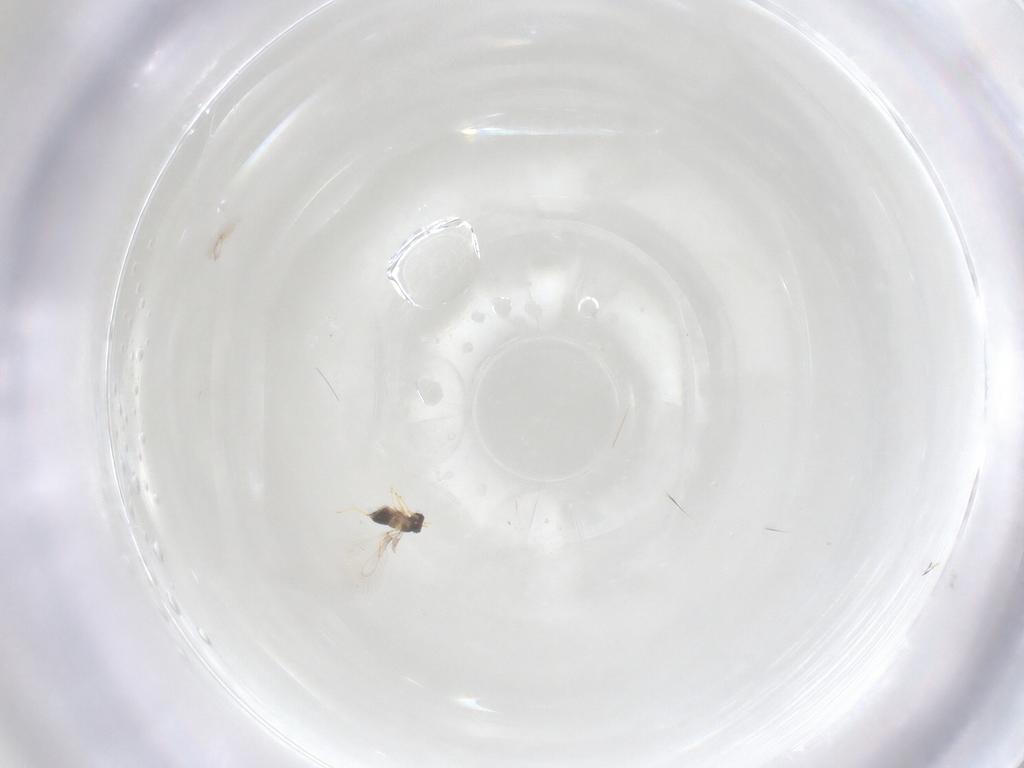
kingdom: Animalia
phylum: Arthropoda
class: Insecta
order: Hymenoptera
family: Mymaridae
